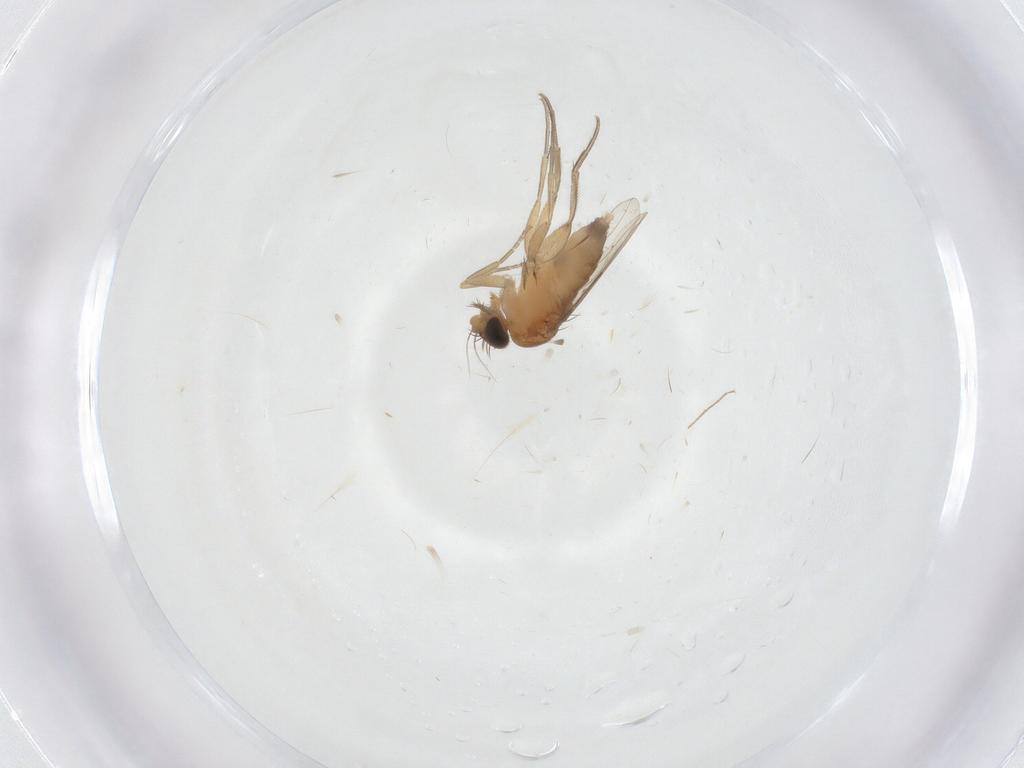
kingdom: Animalia
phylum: Arthropoda
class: Insecta
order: Diptera
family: Phoridae
